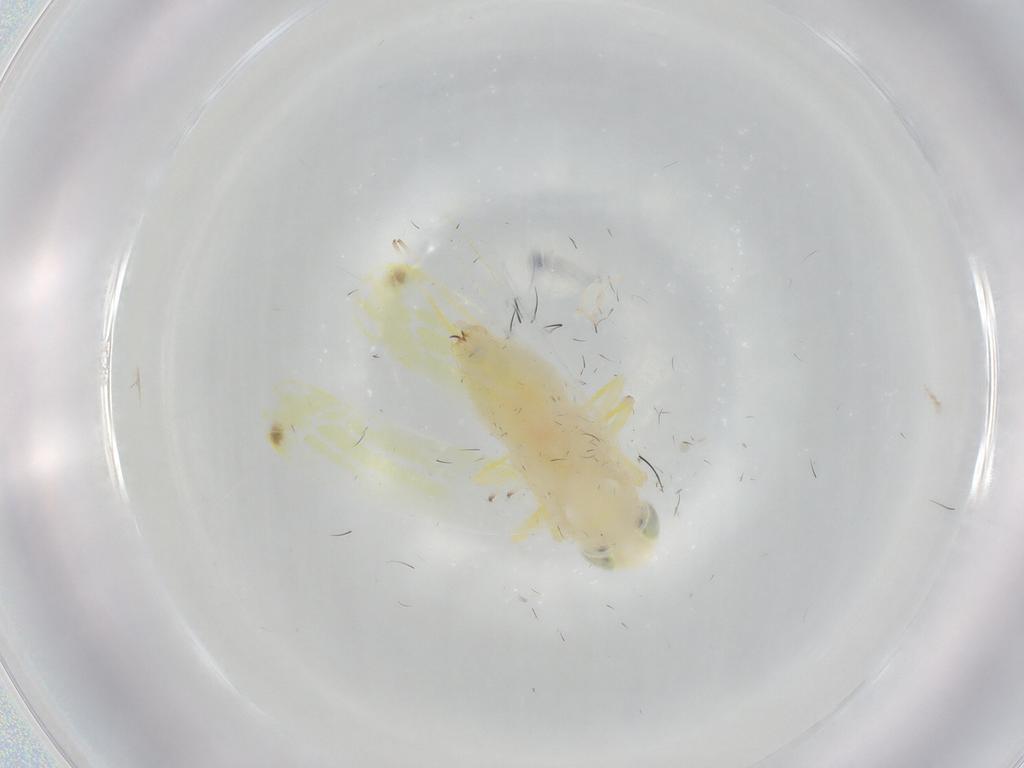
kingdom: Animalia
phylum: Arthropoda
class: Insecta
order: Hemiptera
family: Cicadellidae
